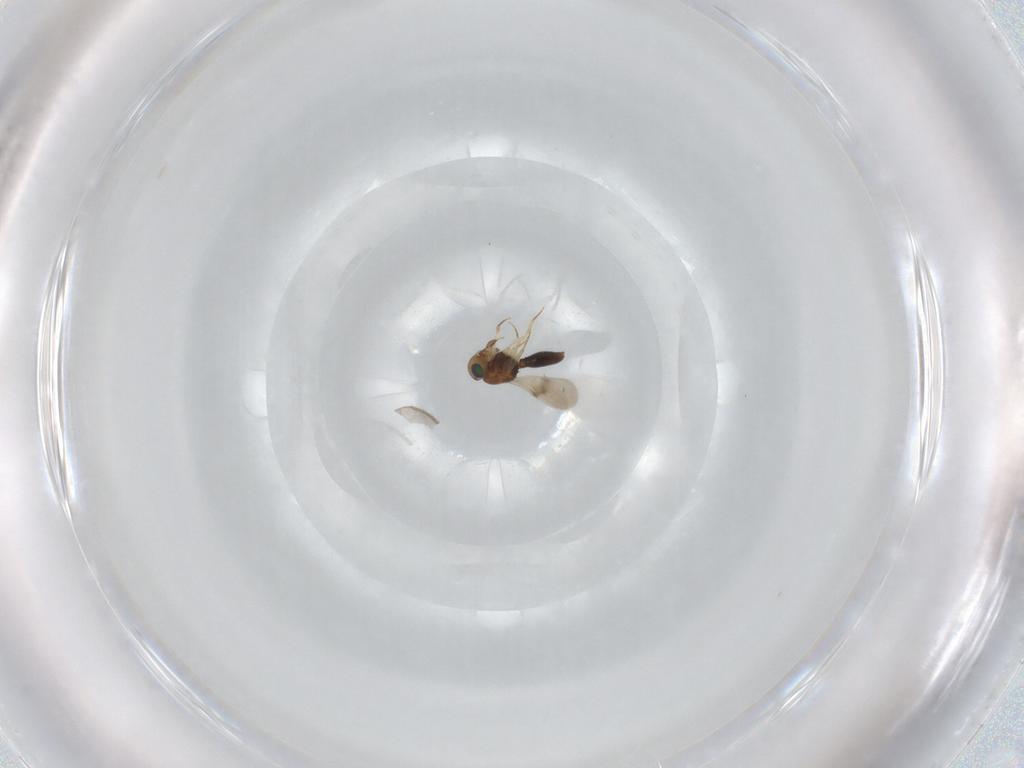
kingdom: Animalia
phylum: Arthropoda
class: Insecta
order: Hymenoptera
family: Scelionidae
